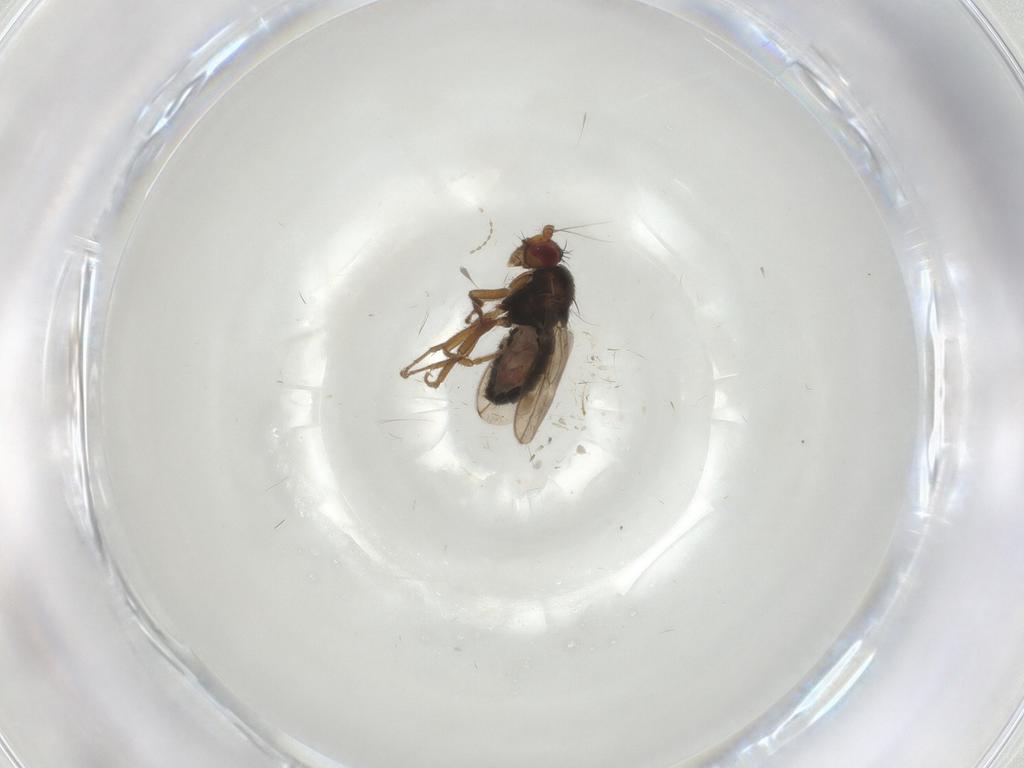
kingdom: Animalia
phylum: Arthropoda
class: Insecta
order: Diptera
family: Sphaeroceridae
